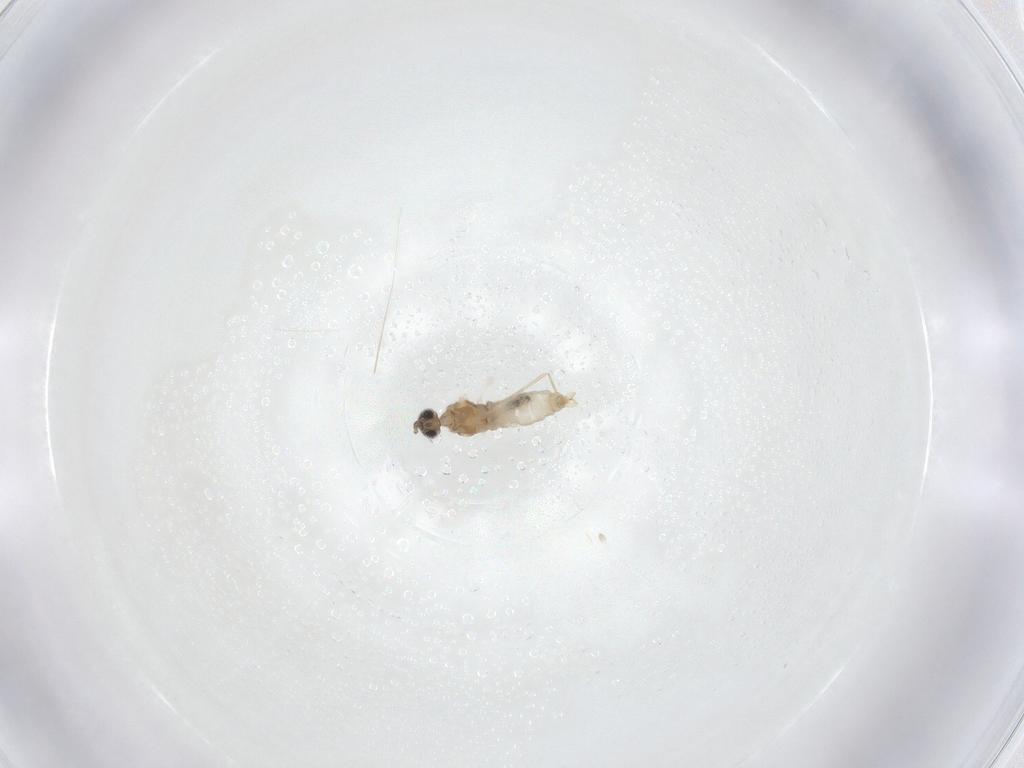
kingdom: Animalia
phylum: Arthropoda
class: Insecta
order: Diptera
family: Cecidomyiidae
